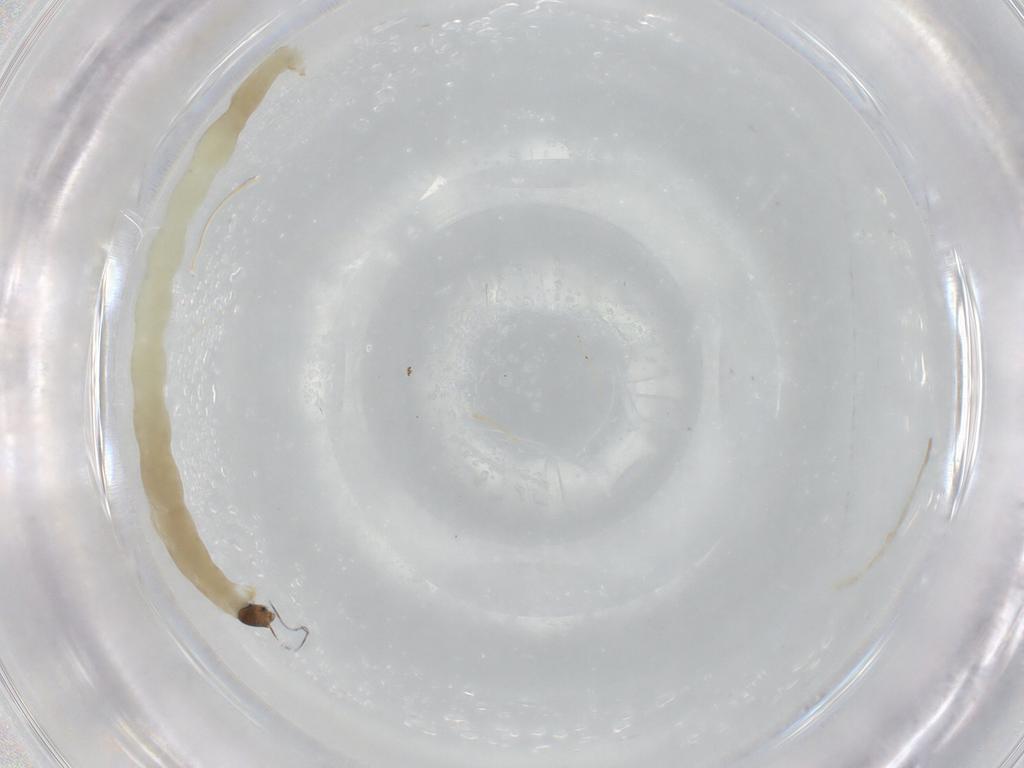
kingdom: Animalia
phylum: Arthropoda
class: Insecta
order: Diptera
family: Chironomidae
